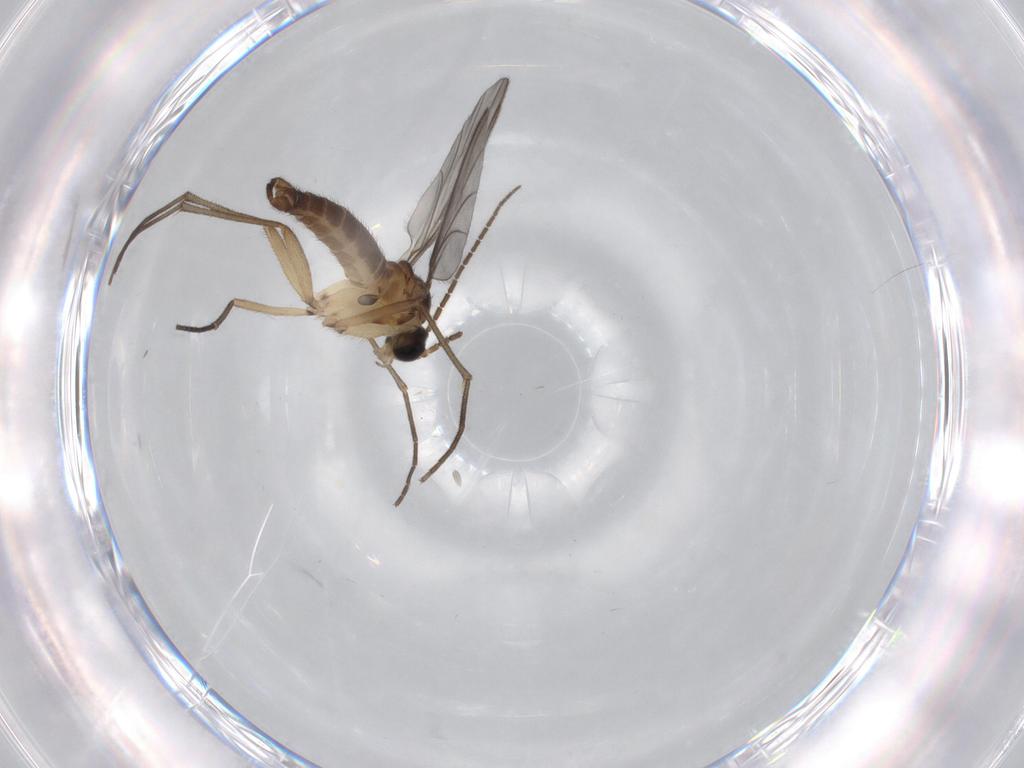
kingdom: Animalia
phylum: Arthropoda
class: Insecta
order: Diptera
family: Sciaridae
